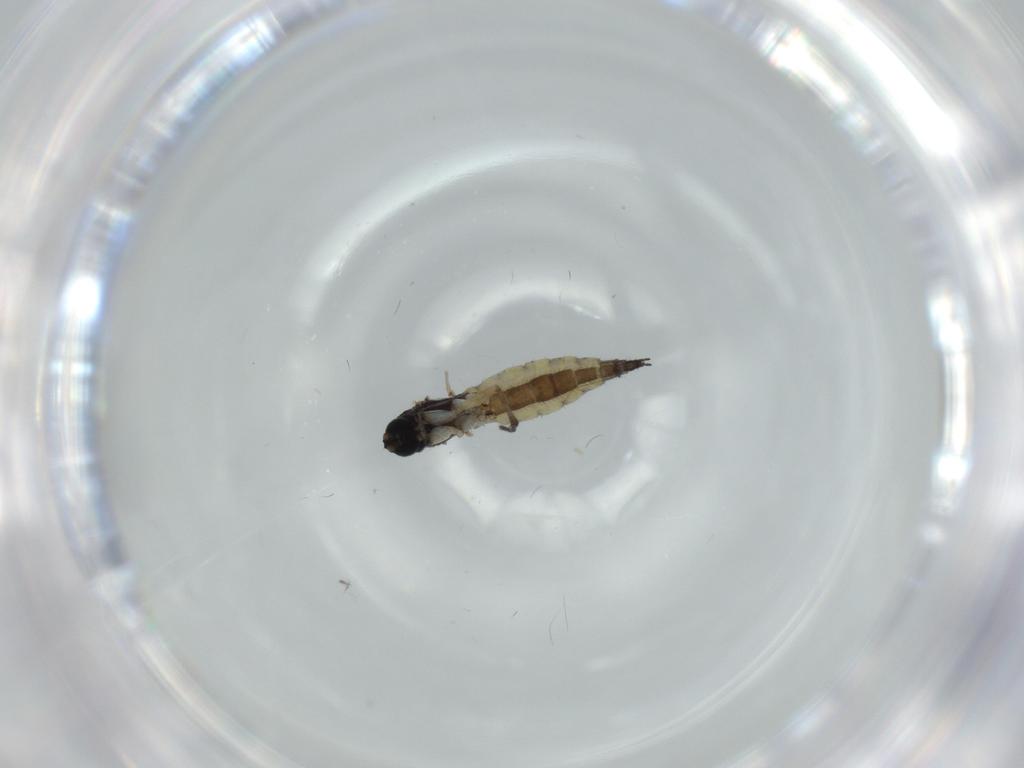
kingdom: Animalia
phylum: Arthropoda
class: Insecta
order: Diptera
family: Sciaridae
